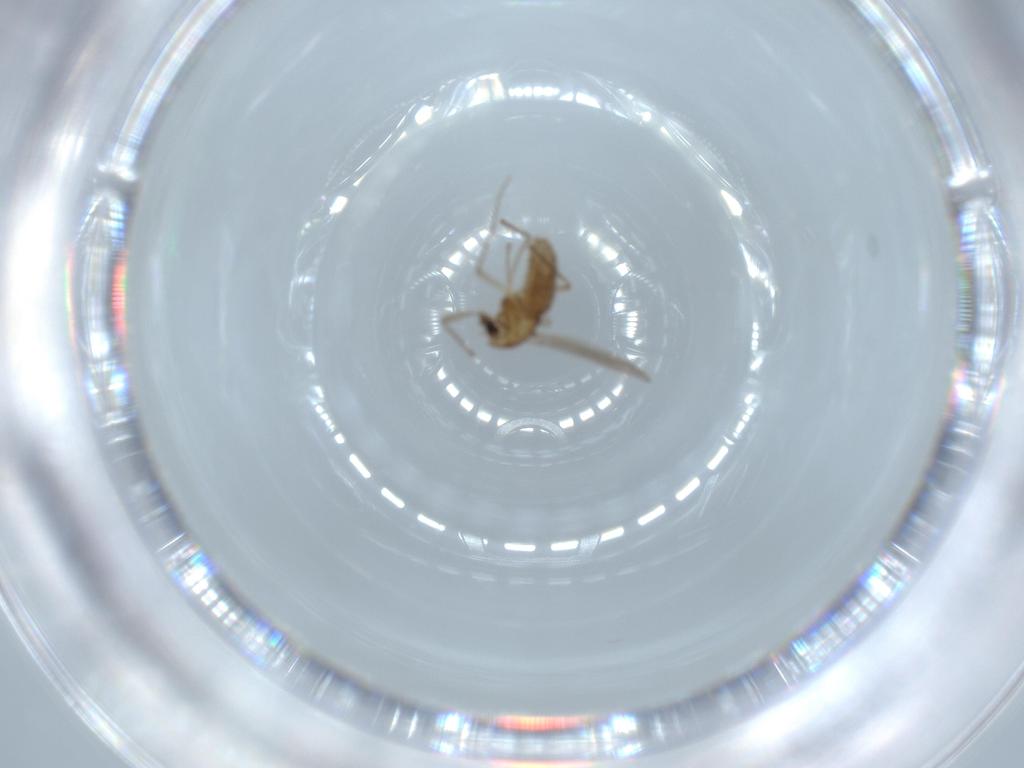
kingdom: Animalia
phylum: Arthropoda
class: Insecta
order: Diptera
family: Chironomidae
